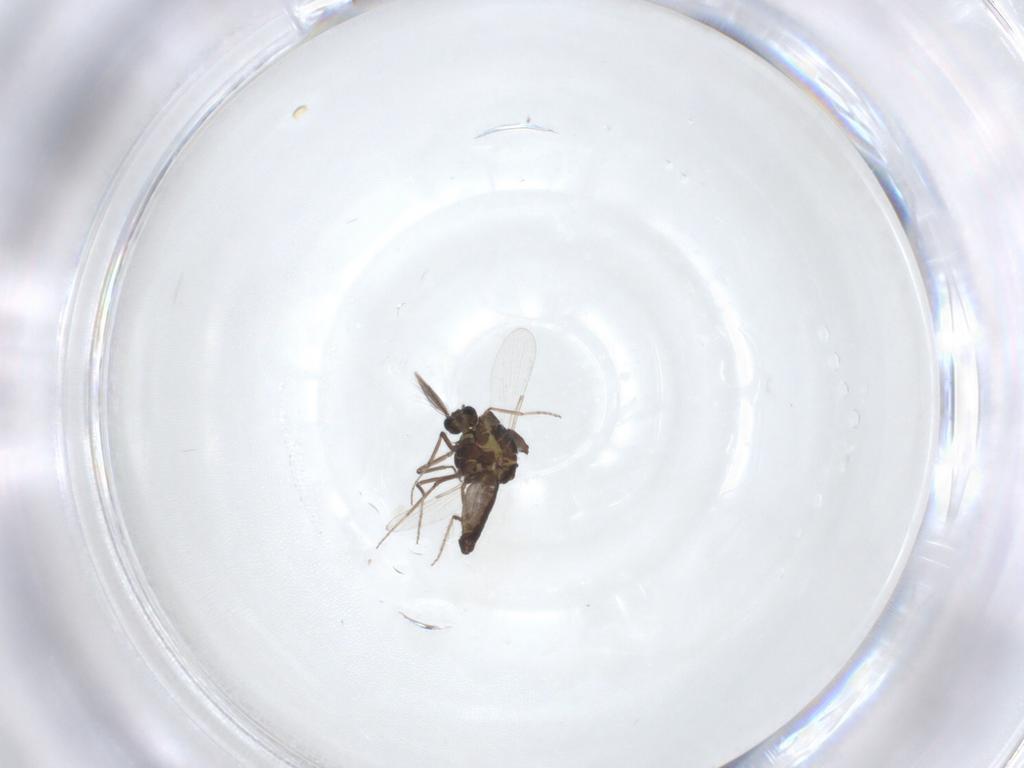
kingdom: Animalia
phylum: Arthropoda
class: Insecta
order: Diptera
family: Ceratopogonidae
